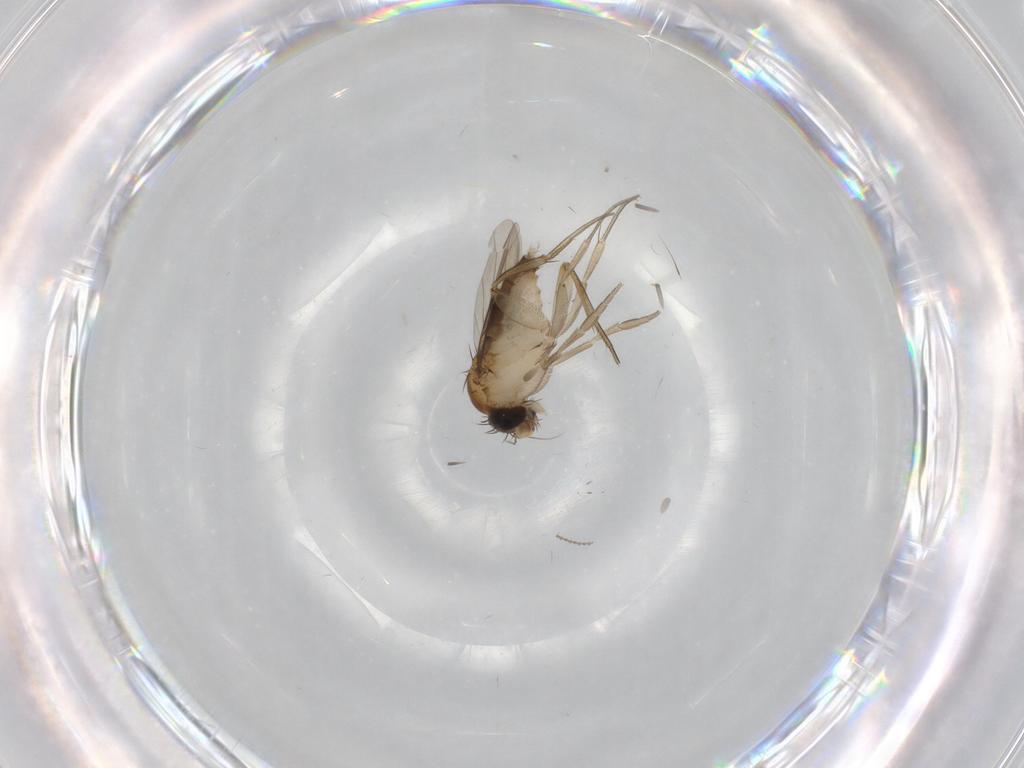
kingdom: Animalia
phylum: Arthropoda
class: Insecta
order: Diptera
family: Phoridae
